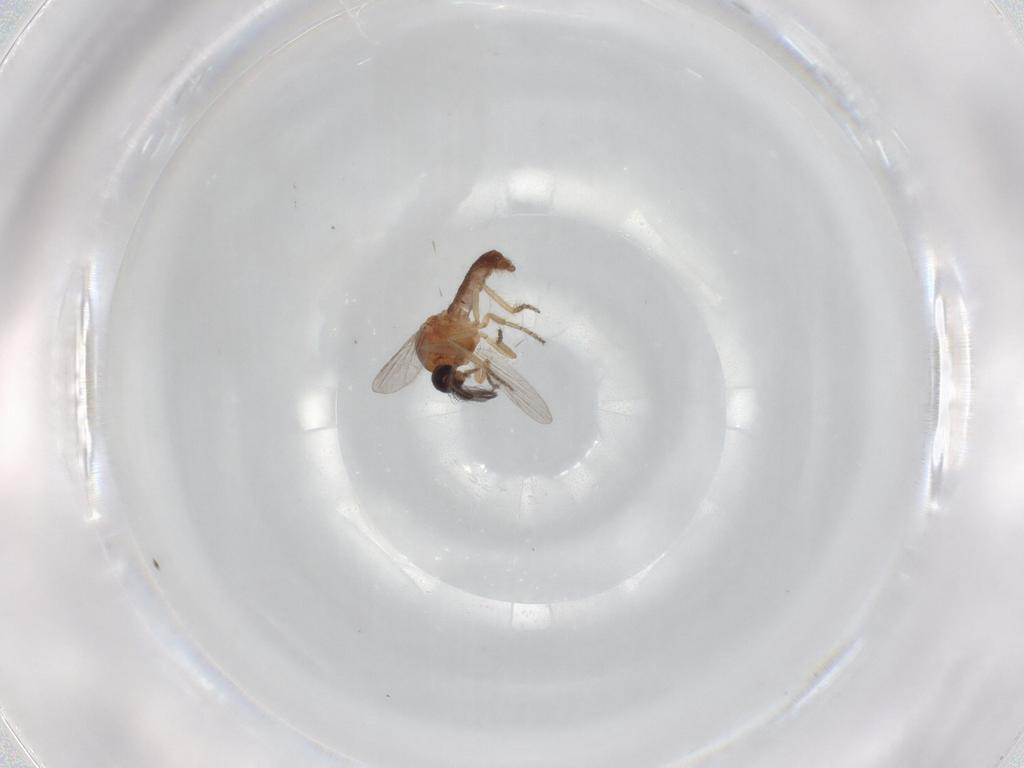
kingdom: Animalia
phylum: Arthropoda
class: Insecta
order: Diptera
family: Ceratopogonidae
